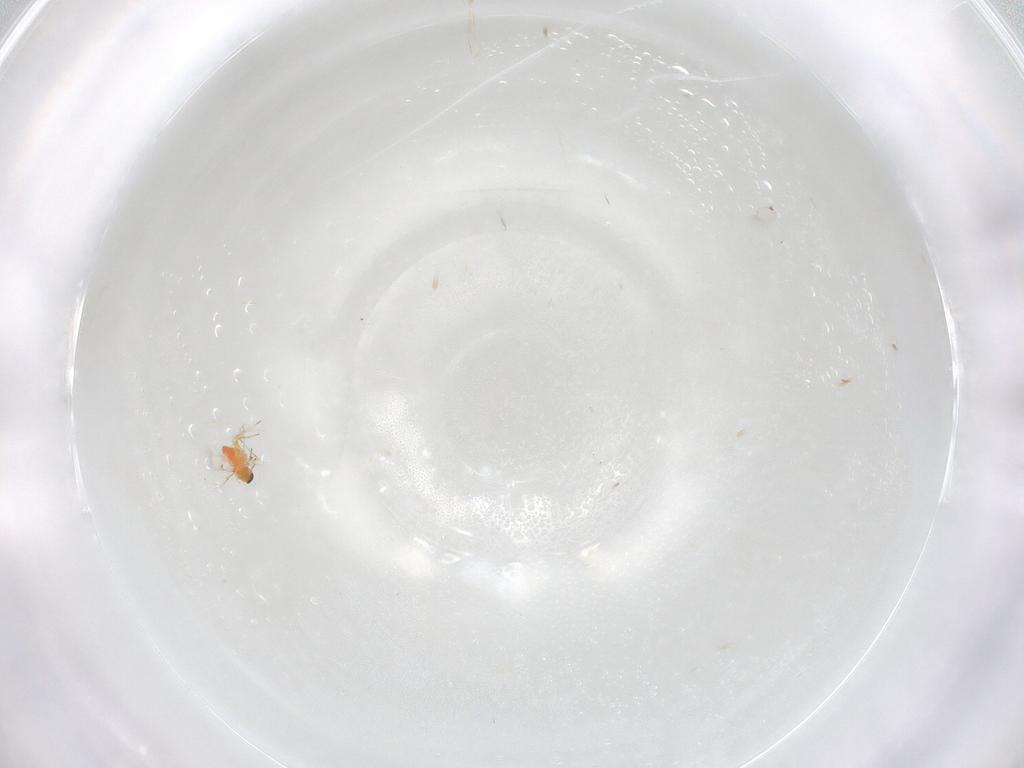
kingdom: Animalia
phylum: Arthropoda
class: Insecta
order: Hymenoptera
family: Trichogrammatidae
